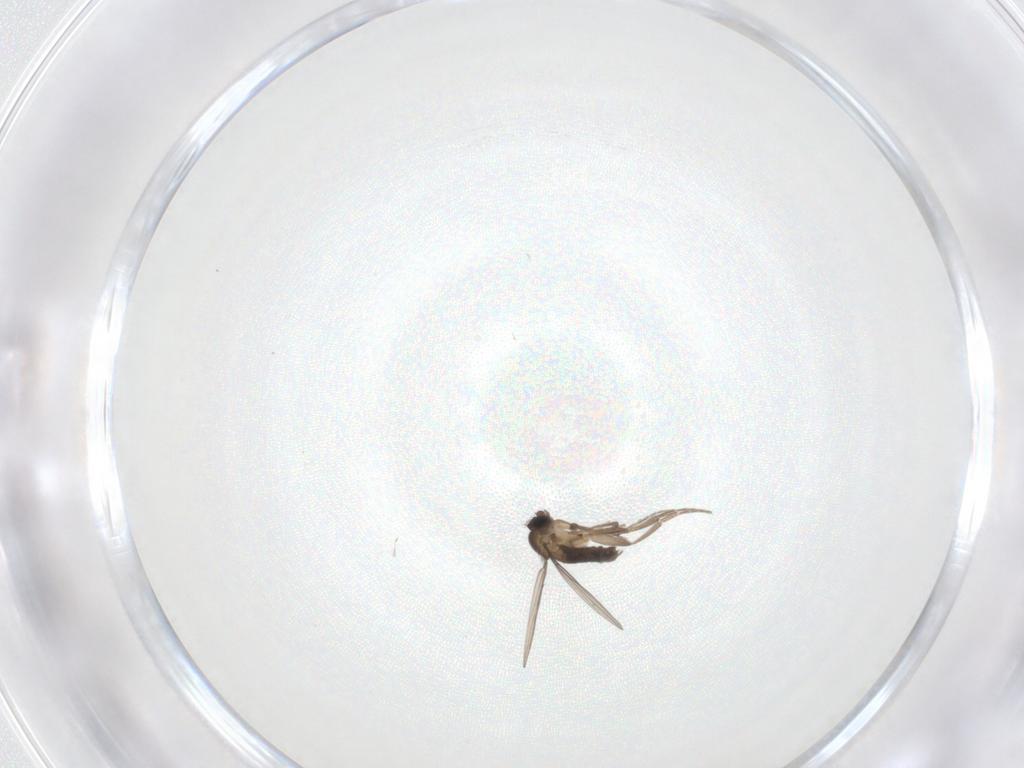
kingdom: Animalia
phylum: Arthropoda
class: Insecta
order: Diptera
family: Phoridae
